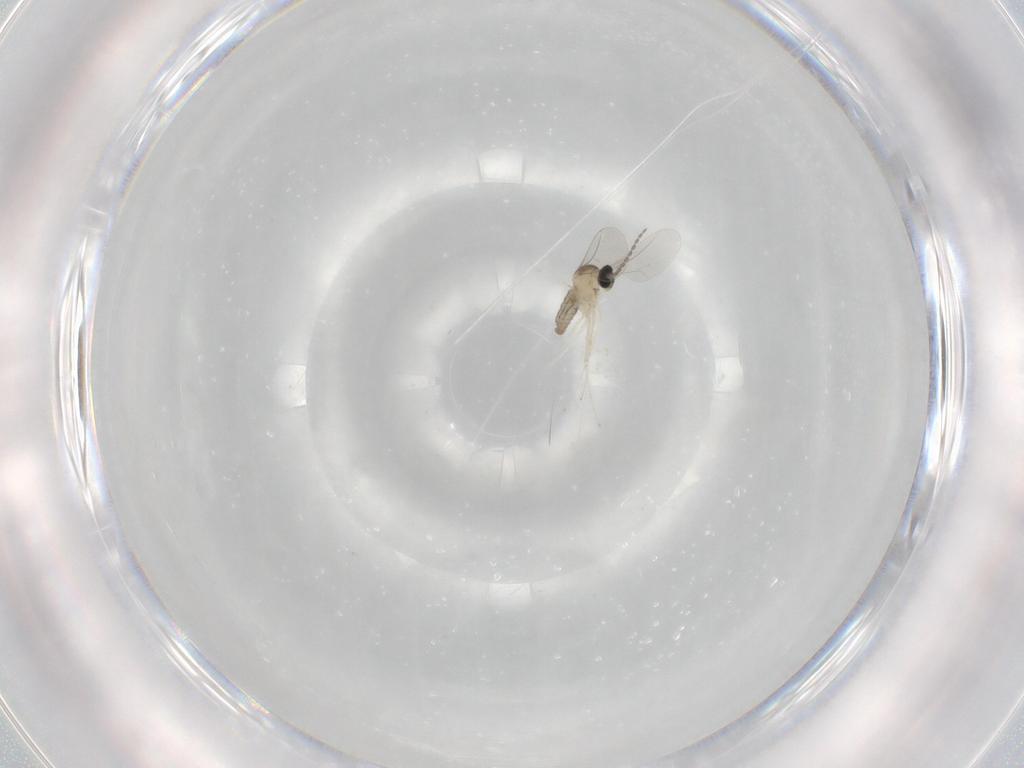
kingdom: Animalia
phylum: Arthropoda
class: Insecta
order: Diptera
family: Cecidomyiidae
